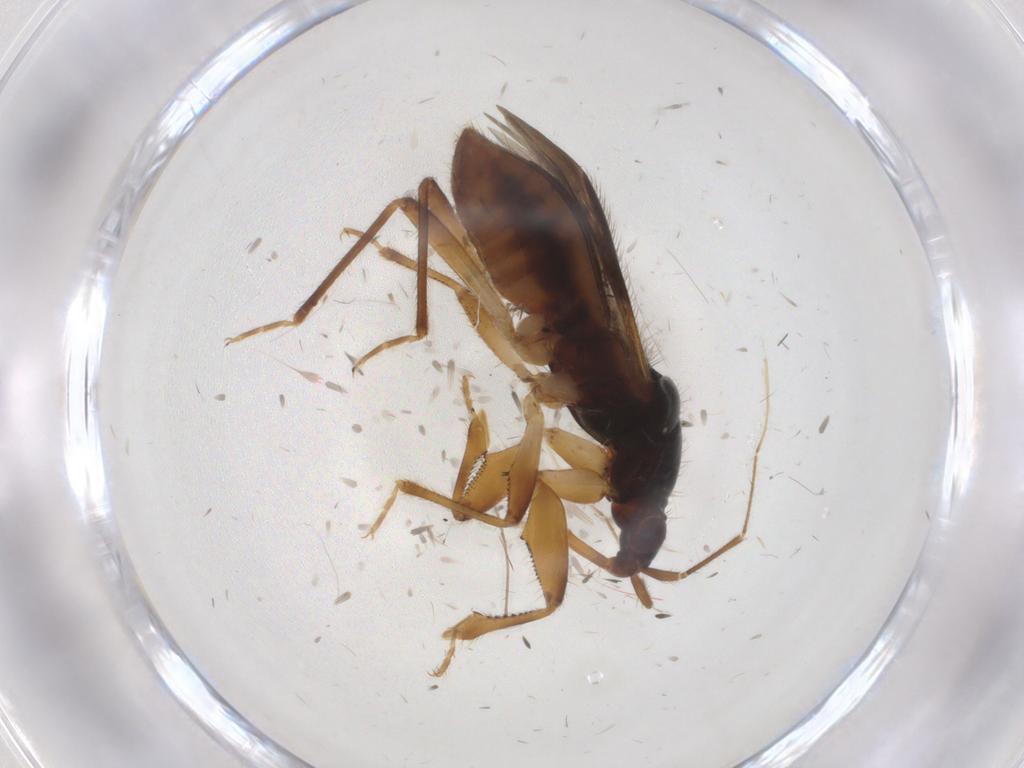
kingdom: Animalia
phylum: Arthropoda
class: Insecta
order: Hemiptera
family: Nabidae
